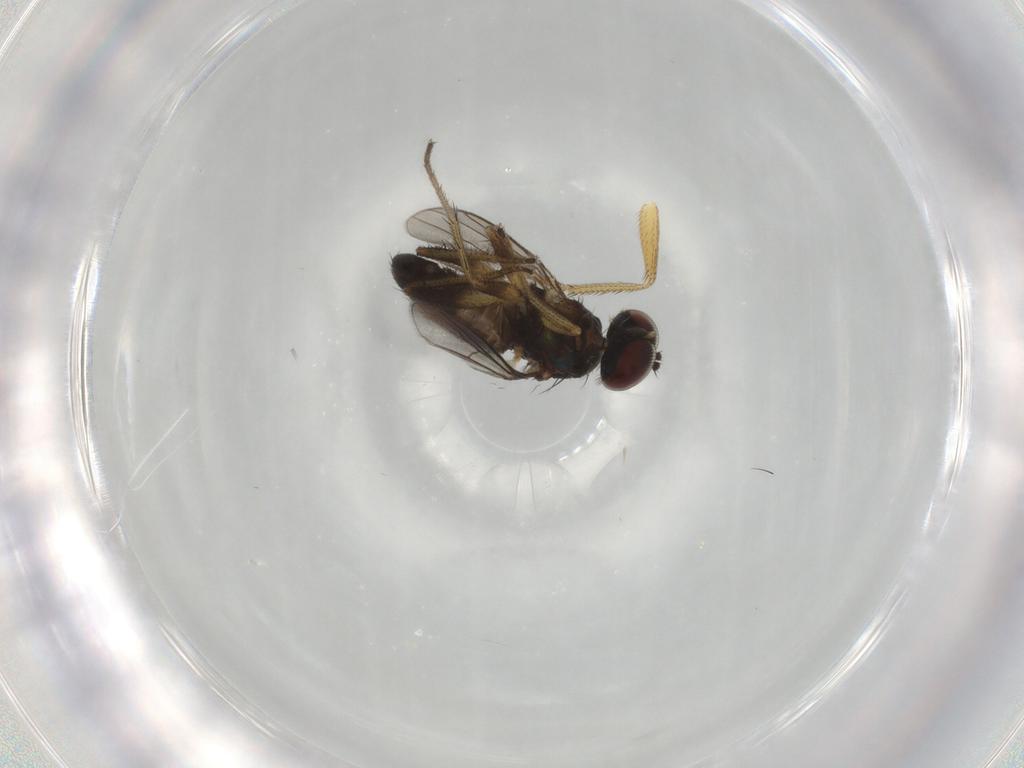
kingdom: Animalia
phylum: Arthropoda
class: Insecta
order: Diptera
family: Dolichopodidae
